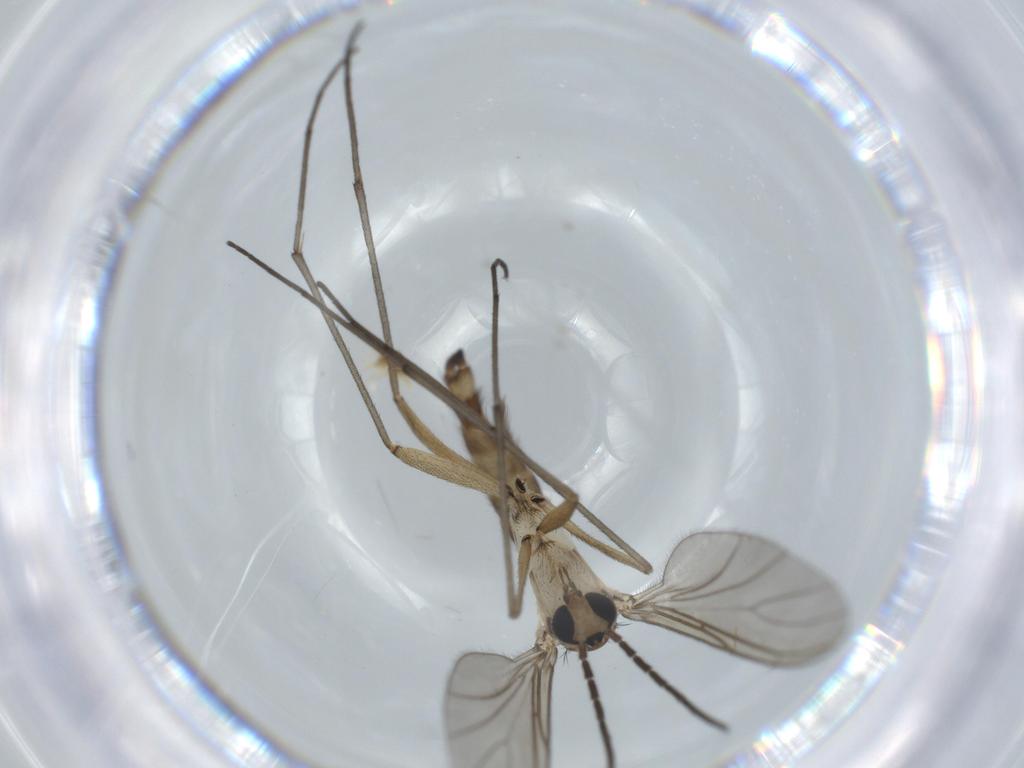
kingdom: Animalia
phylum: Arthropoda
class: Insecta
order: Diptera
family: Sciaridae
